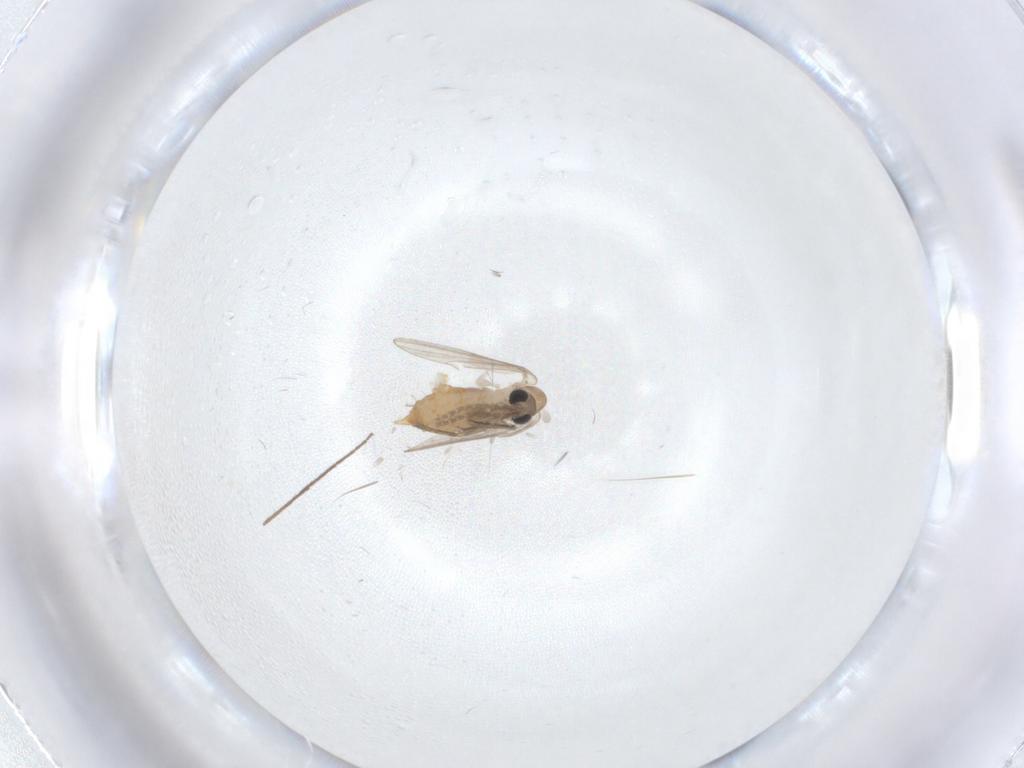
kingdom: Animalia
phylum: Arthropoda
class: Insecta
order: Diptera
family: Psychodidae
